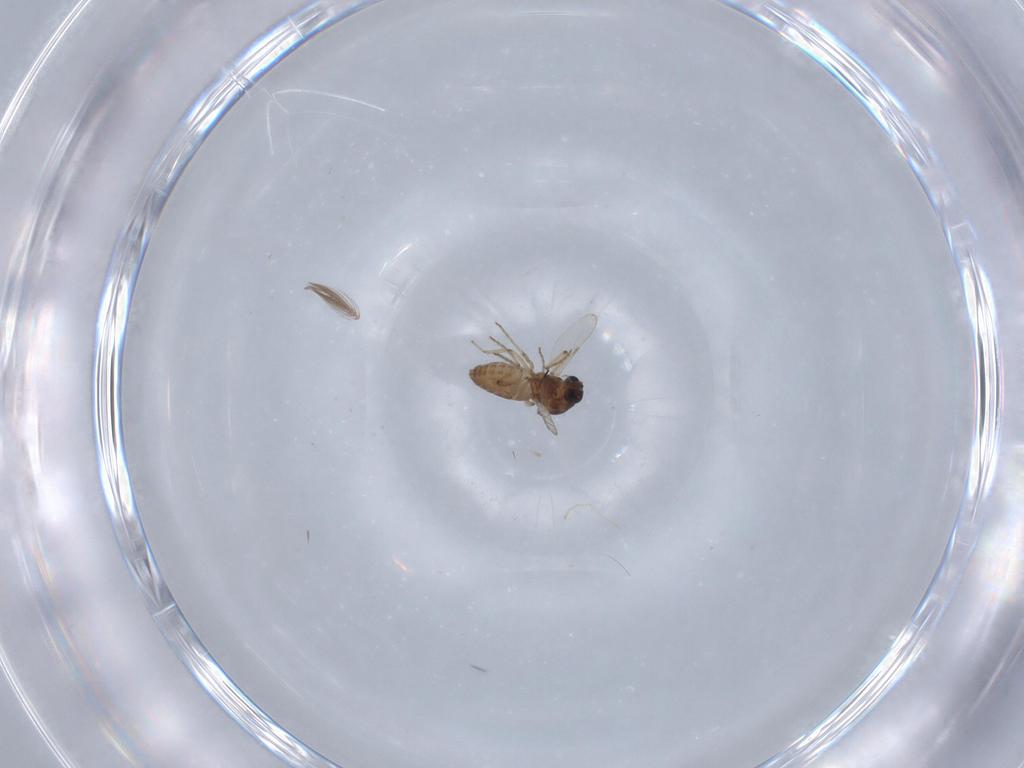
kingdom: Animalia
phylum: Arthropoda
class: Insecta
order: Diptera
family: Ceratopogonidae
